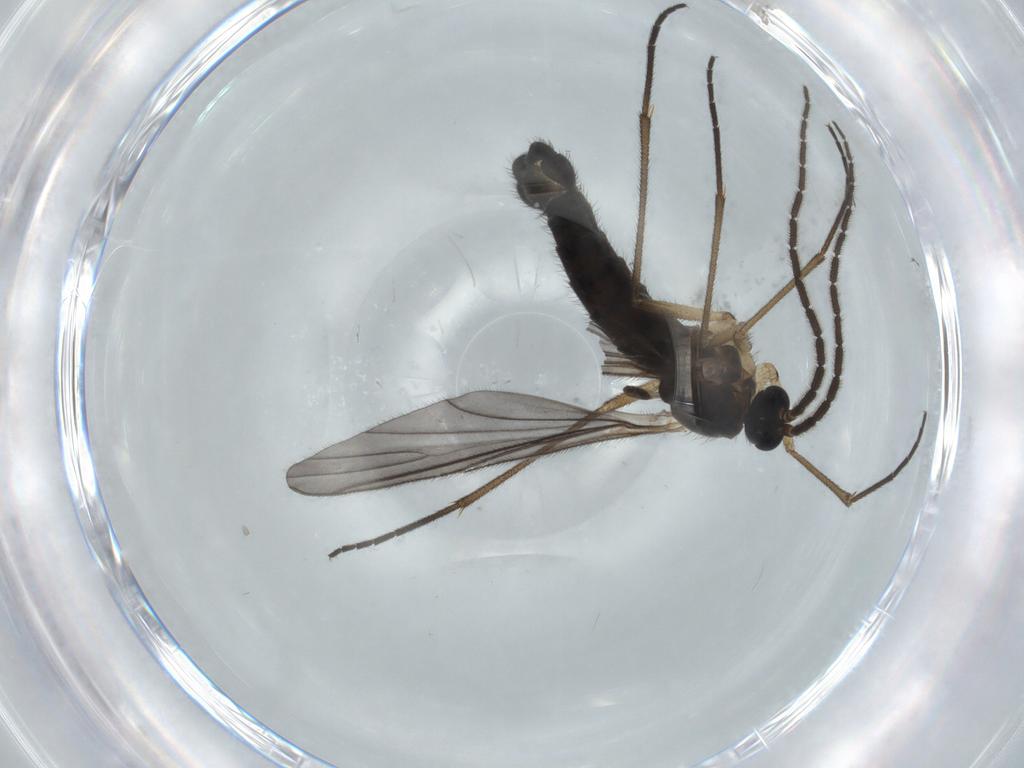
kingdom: Animalia
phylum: Arthropoda
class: Insecta
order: Diptera
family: Sciaridae
